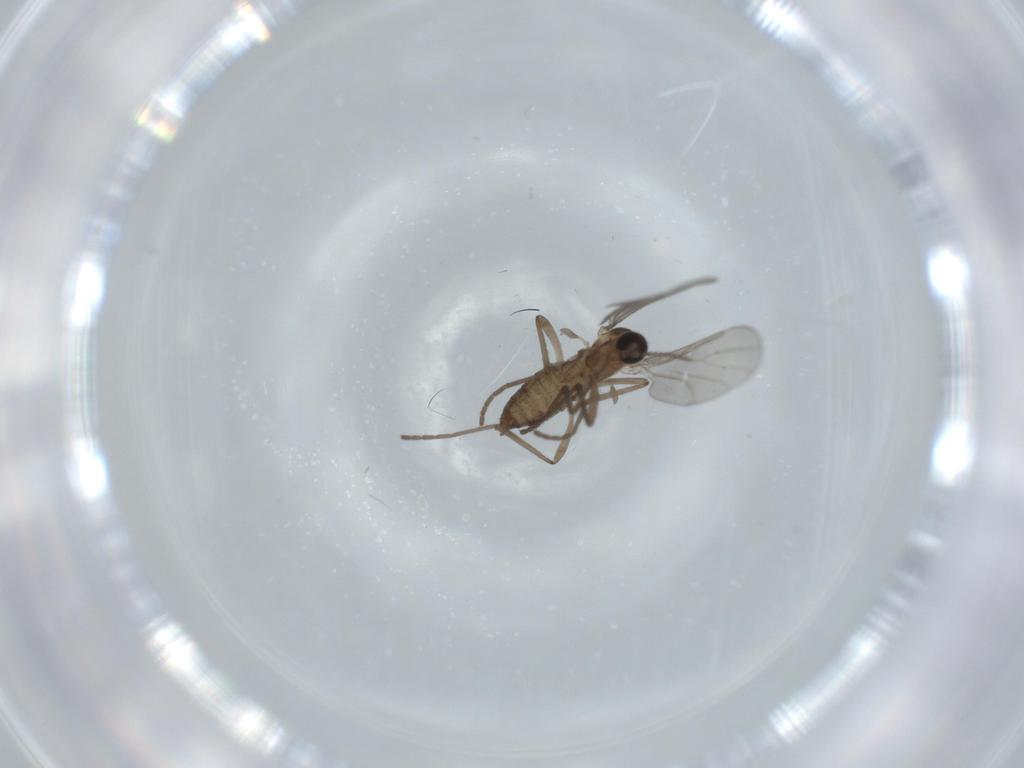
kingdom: Animalia
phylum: Arthropoda
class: Insecta
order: Diptera
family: Cecidomyiidae
